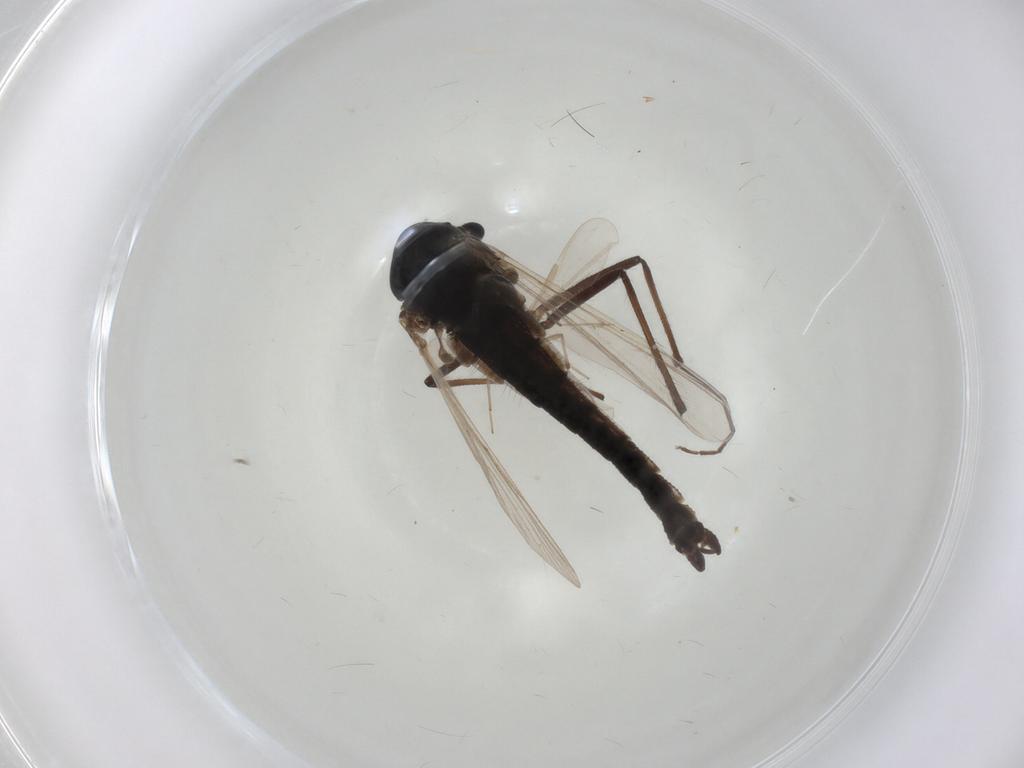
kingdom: Animalia
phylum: Arthropoda
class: Insecta
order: Diptera
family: Chironomidae
